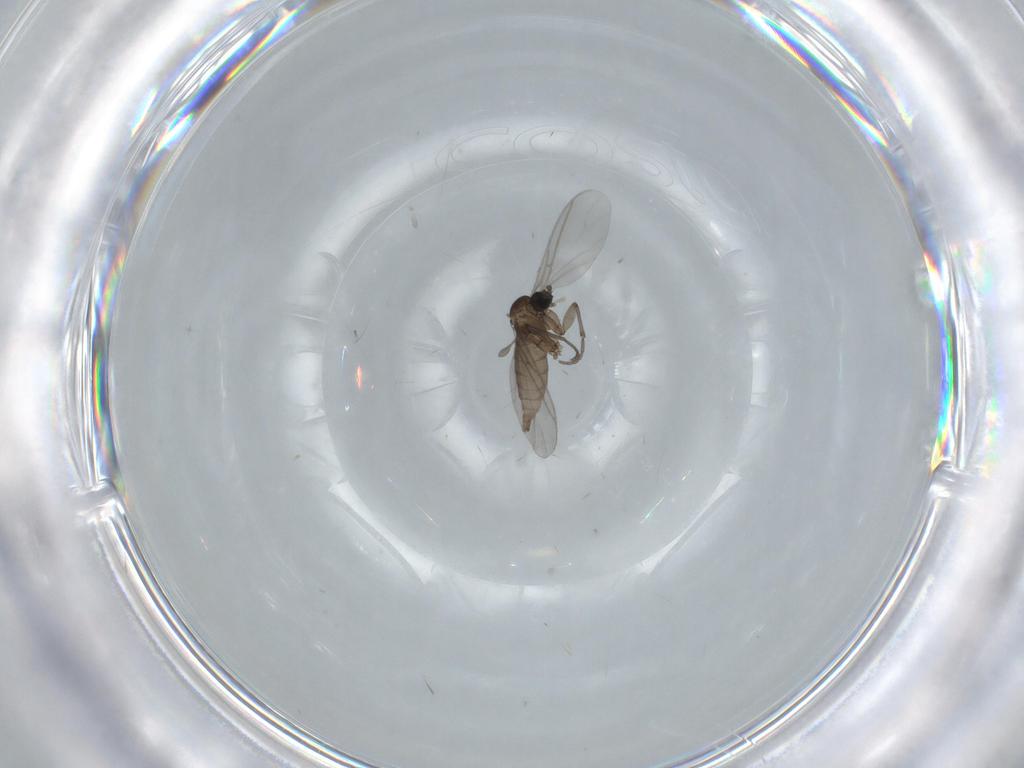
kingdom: Animalia
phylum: Arthropoda
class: Insecta
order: Diptera
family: Sciaridae
